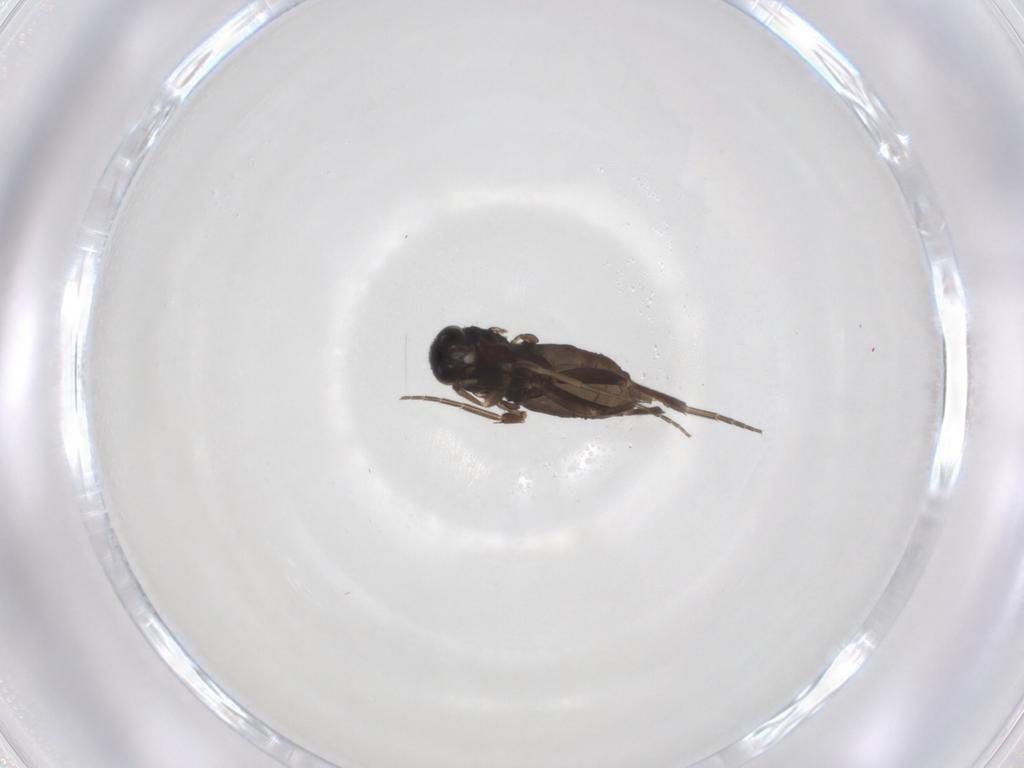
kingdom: Animalia
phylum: Arthropoda
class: Insecta
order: Diptera
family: Phoridae
